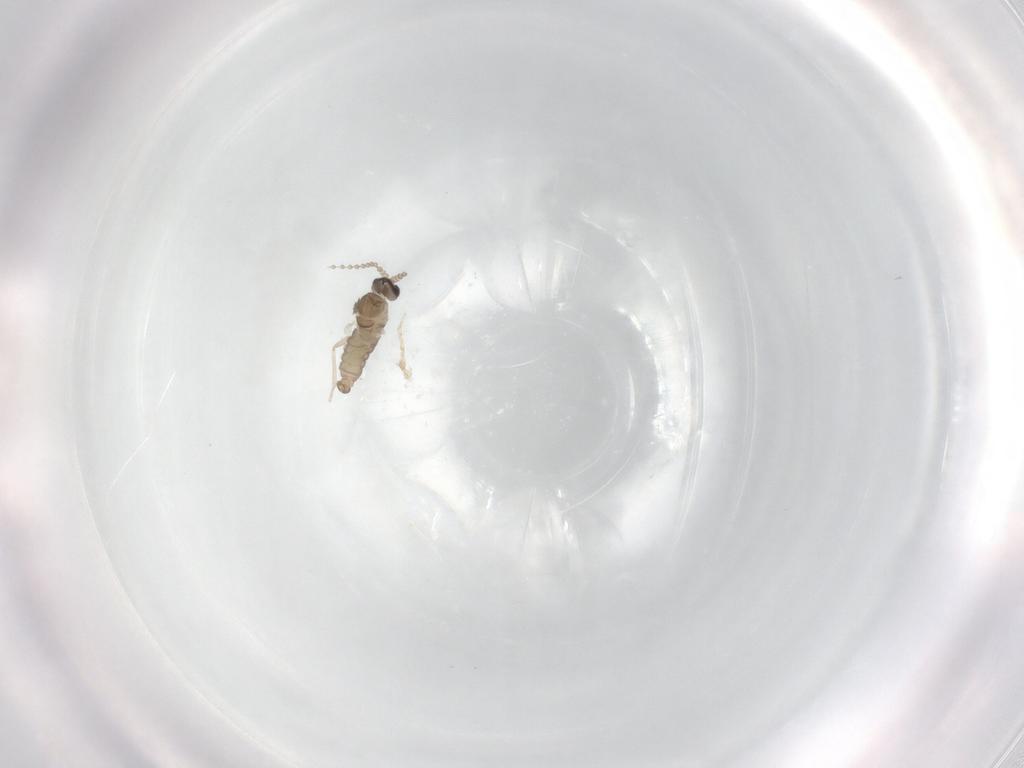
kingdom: Animalia
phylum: Arthropoda
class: Insecta
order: Diptera
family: Cecidomyiidae
